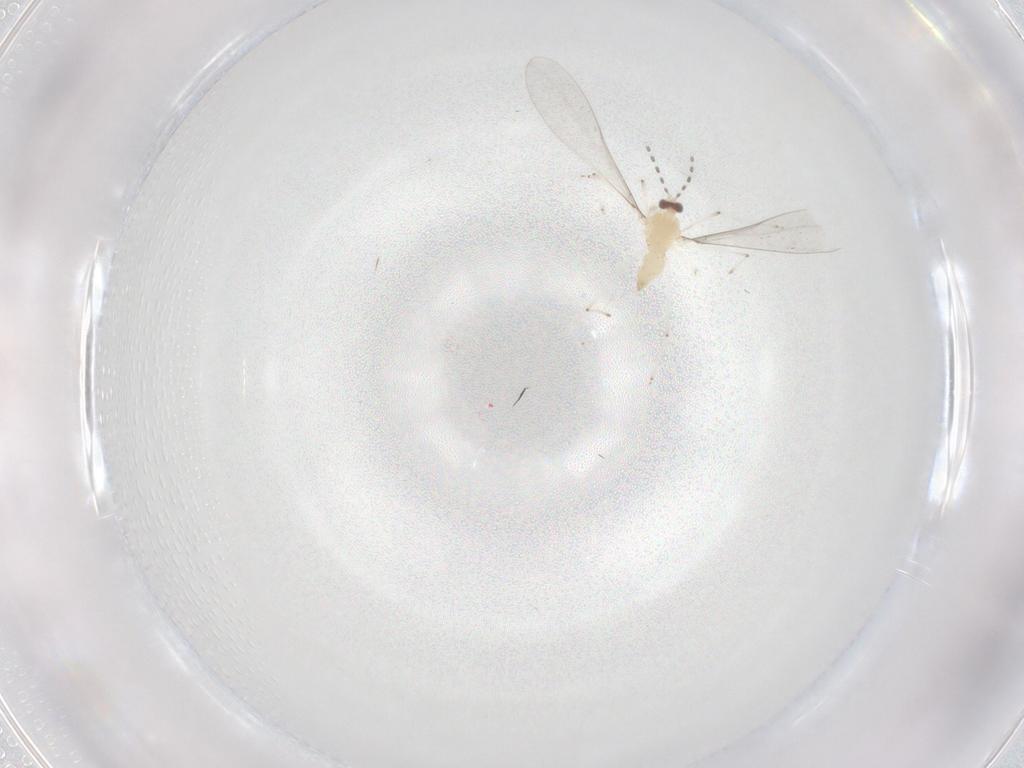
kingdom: Animalia
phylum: Arthropoda
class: Insecta
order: Diptera
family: Cecidomyiidae
